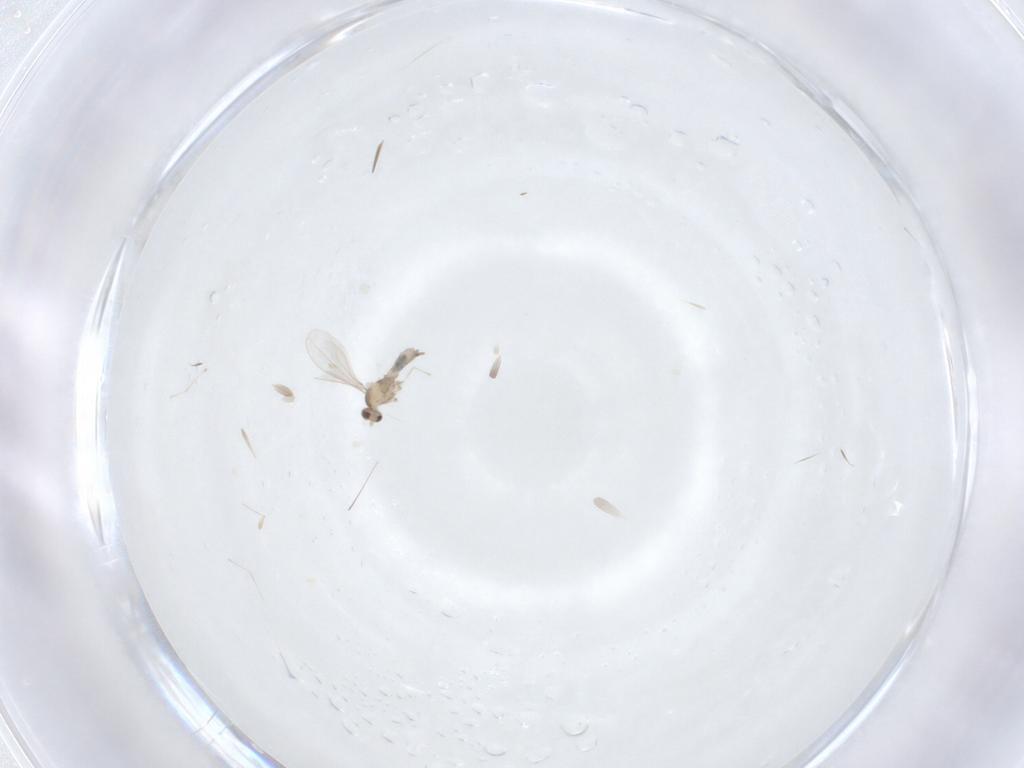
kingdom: Animalia
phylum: Arthropoda
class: Insecta
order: Diptera
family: Cecidomyiidae
